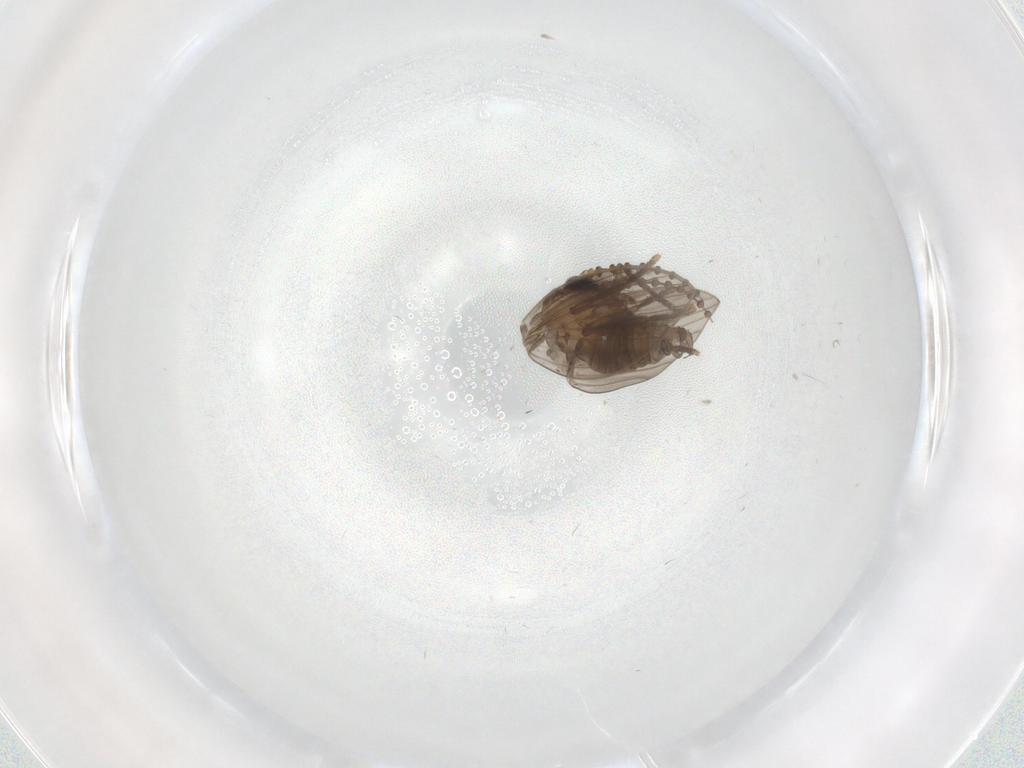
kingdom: Animalia
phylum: Arthropoda
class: Insecta
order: Diptera
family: Psychodidae
